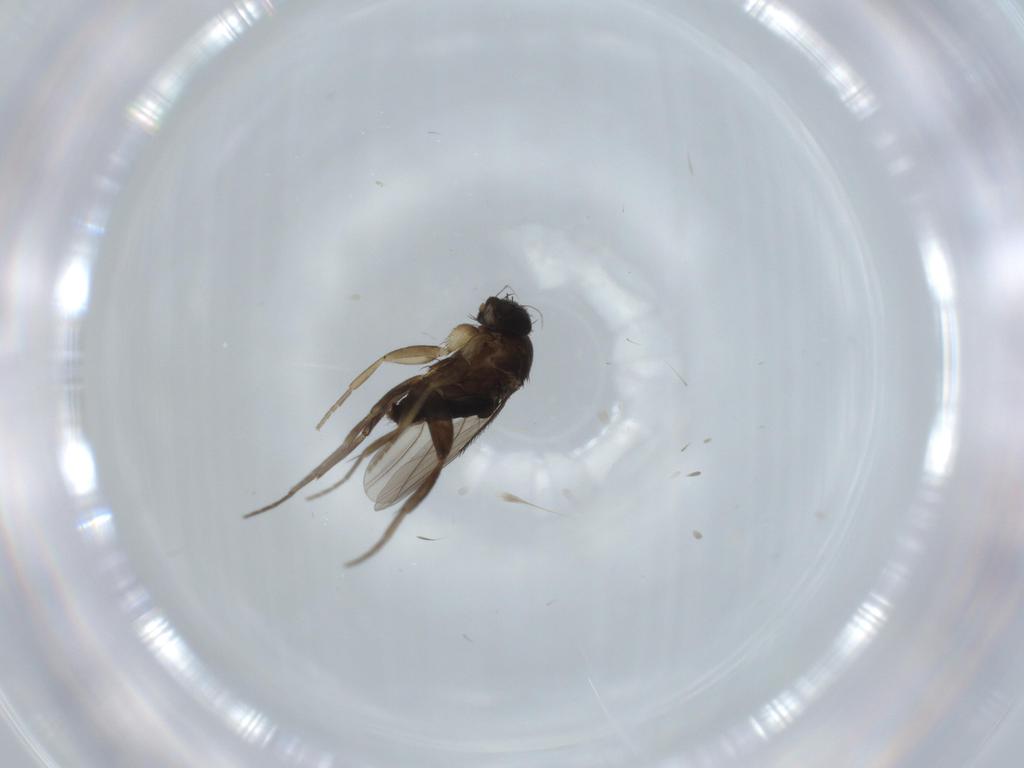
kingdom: Animalia
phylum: Arthropoda
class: Insecta
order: Diptera
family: Phoridae
